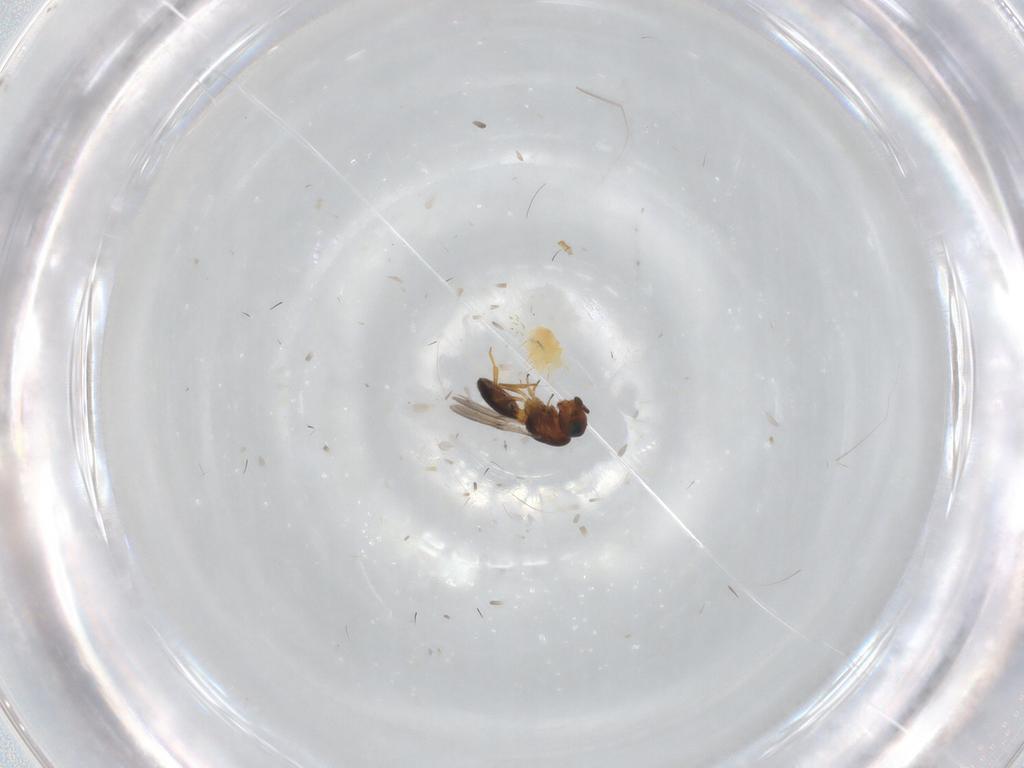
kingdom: Animalia
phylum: Arthropoda
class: Insecta
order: Hymenoptera
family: Scelionidae
